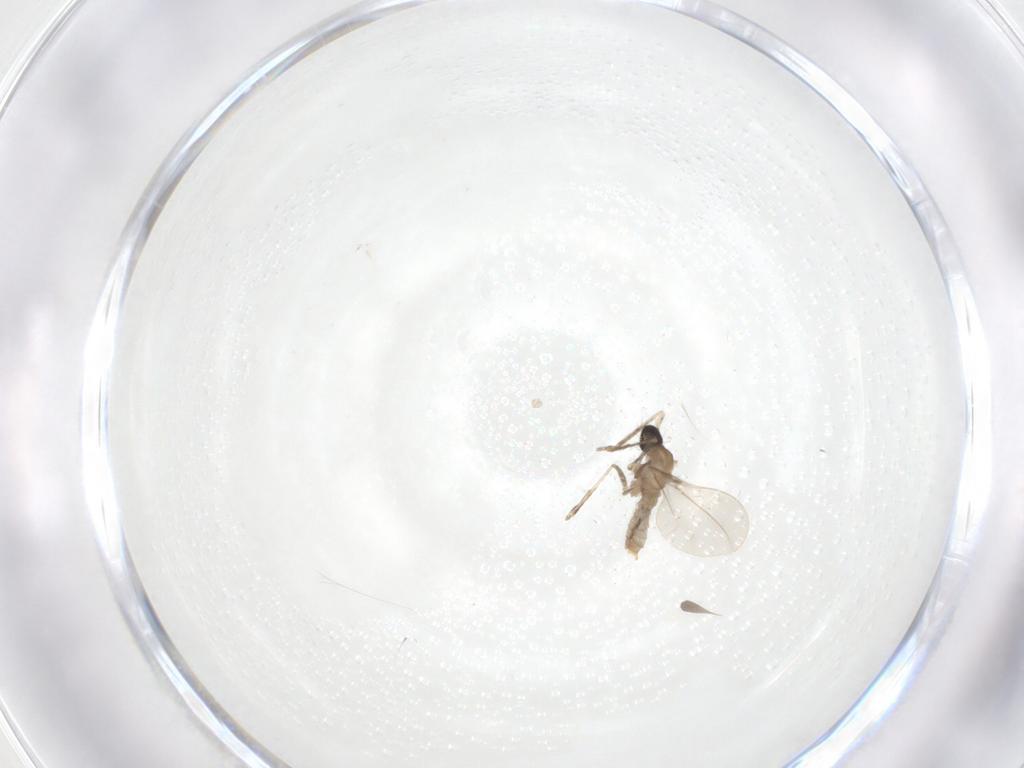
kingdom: Animalia
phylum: Arthropoda
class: Insecta
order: Diptera
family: Cecidomyiidae
